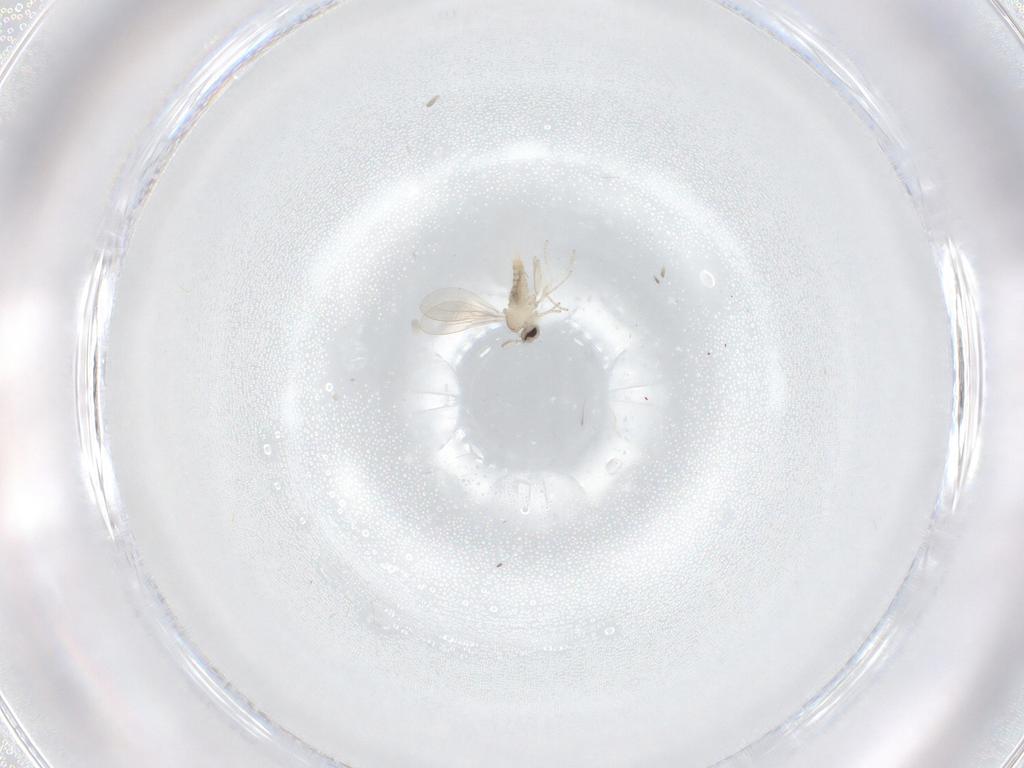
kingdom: Animalia
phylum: Arthropoda
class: Insecta
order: Diptera
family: Cecidomyiidae
